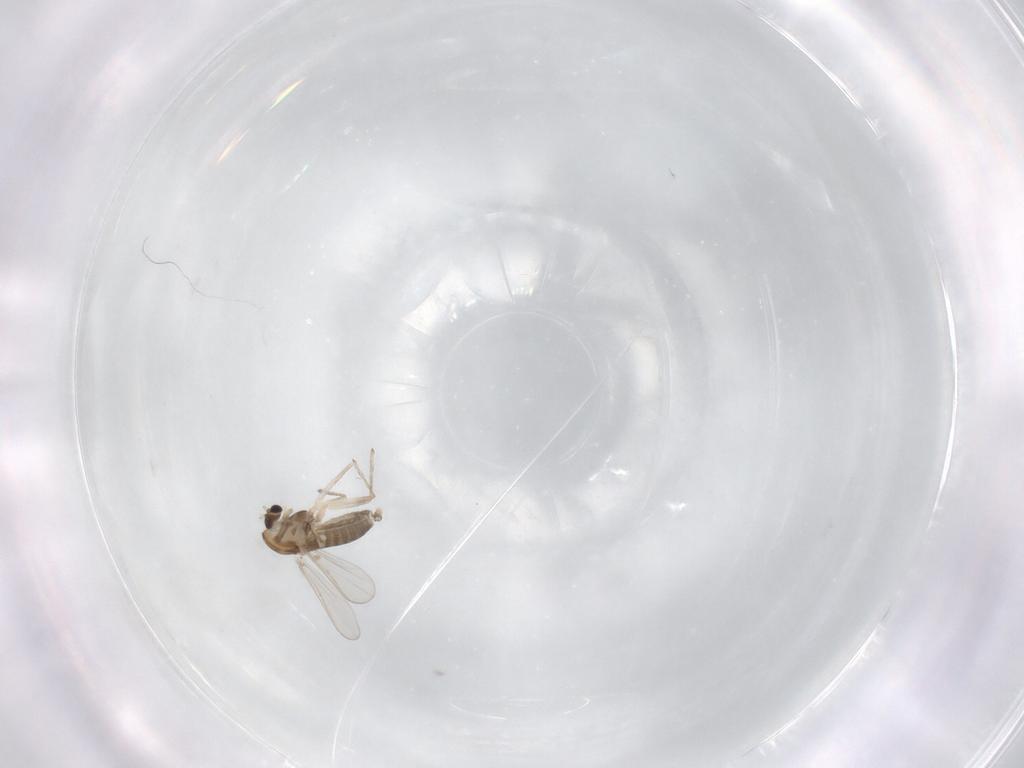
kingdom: Animalia
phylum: Arthropoda
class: Insecta
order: Diptera
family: Chironomidae
